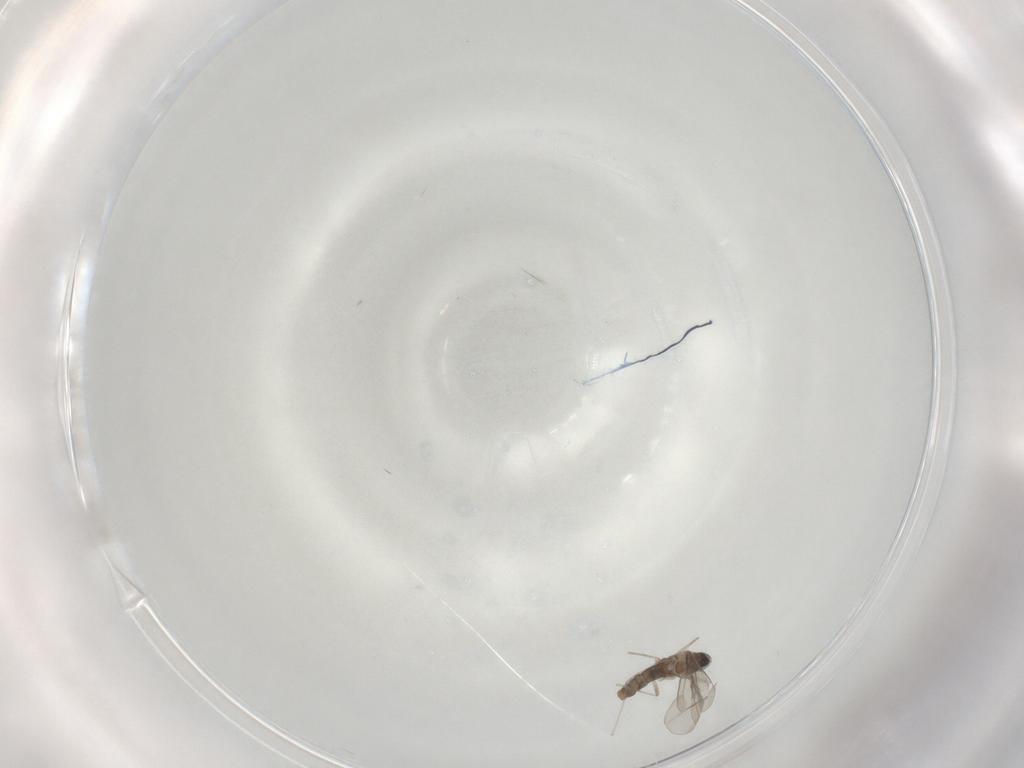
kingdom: Animalia
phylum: Arthropoda
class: Insecta
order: Diptera
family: Cecidomyiidae
